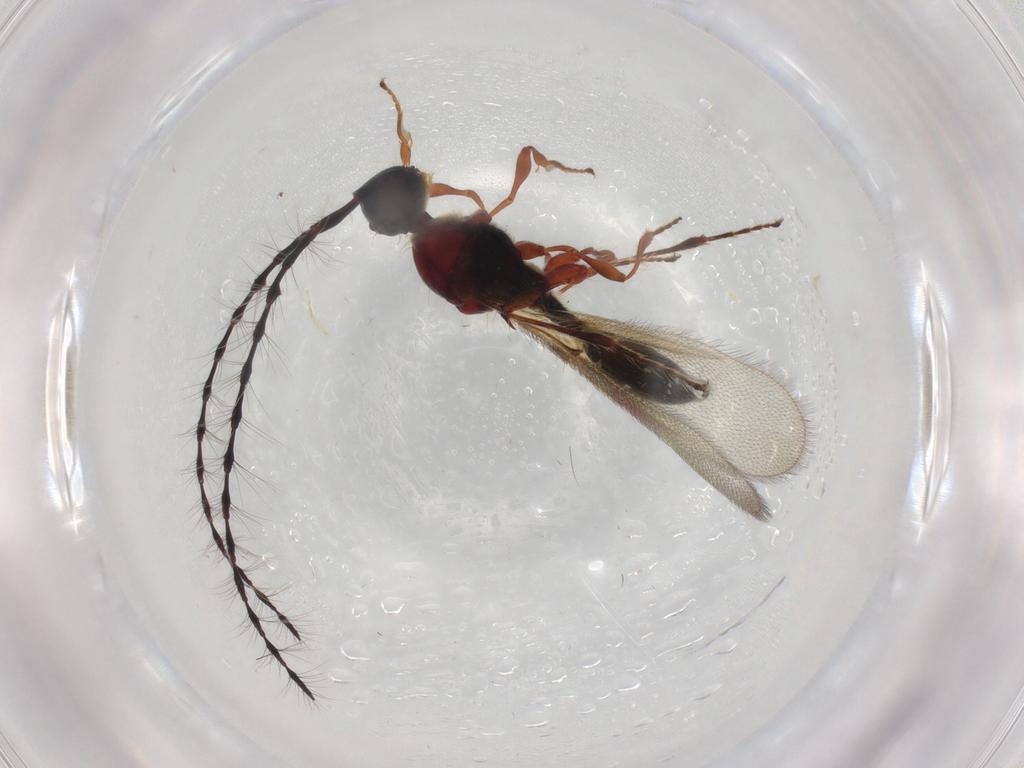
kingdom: Animalia
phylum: Arthropoda
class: Insecta
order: Hymenoptera
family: Diapriidae
